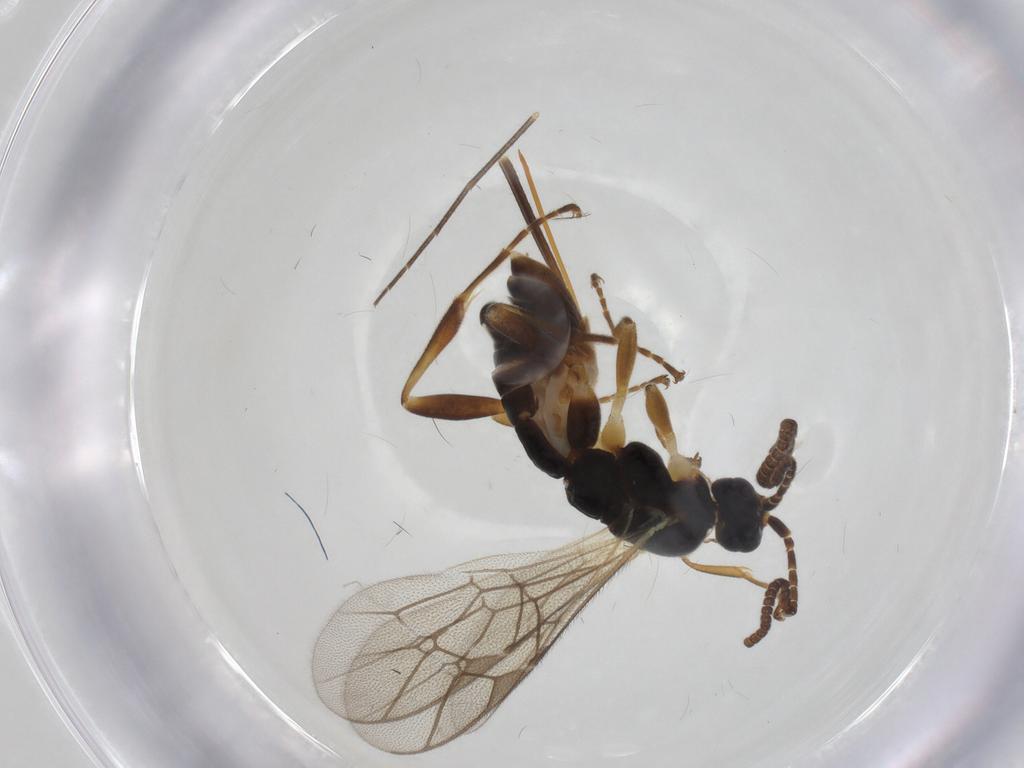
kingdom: Animalia
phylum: Arthropoda
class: Insecta
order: Hymenoptera
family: Ichneumonidae
